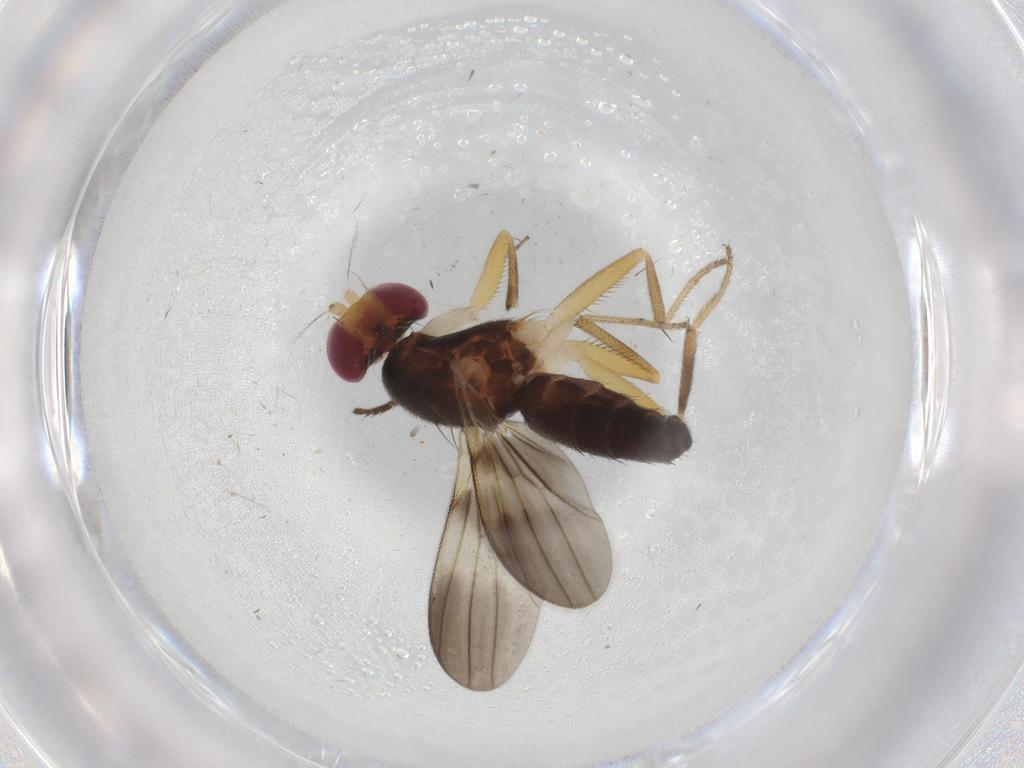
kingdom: Animalia
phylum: Arthropoda
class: Insecta
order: Diptera
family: Clusiidae
